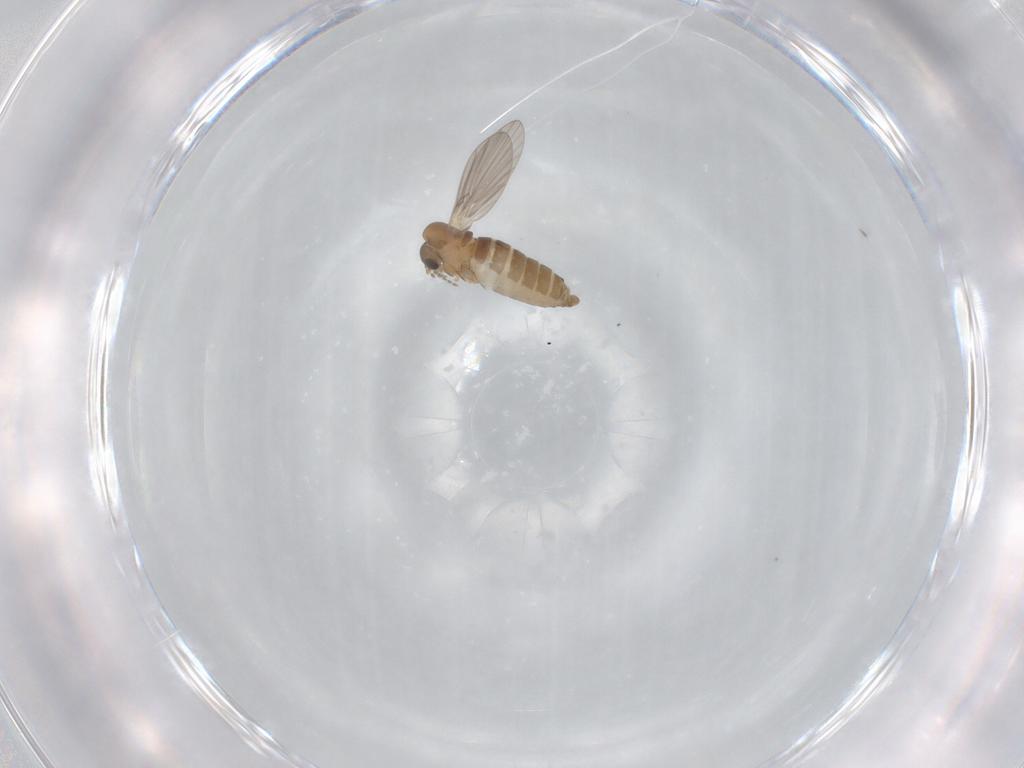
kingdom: Animalia
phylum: Arthropoda
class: Insecta
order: Diptera
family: Psychodidae
